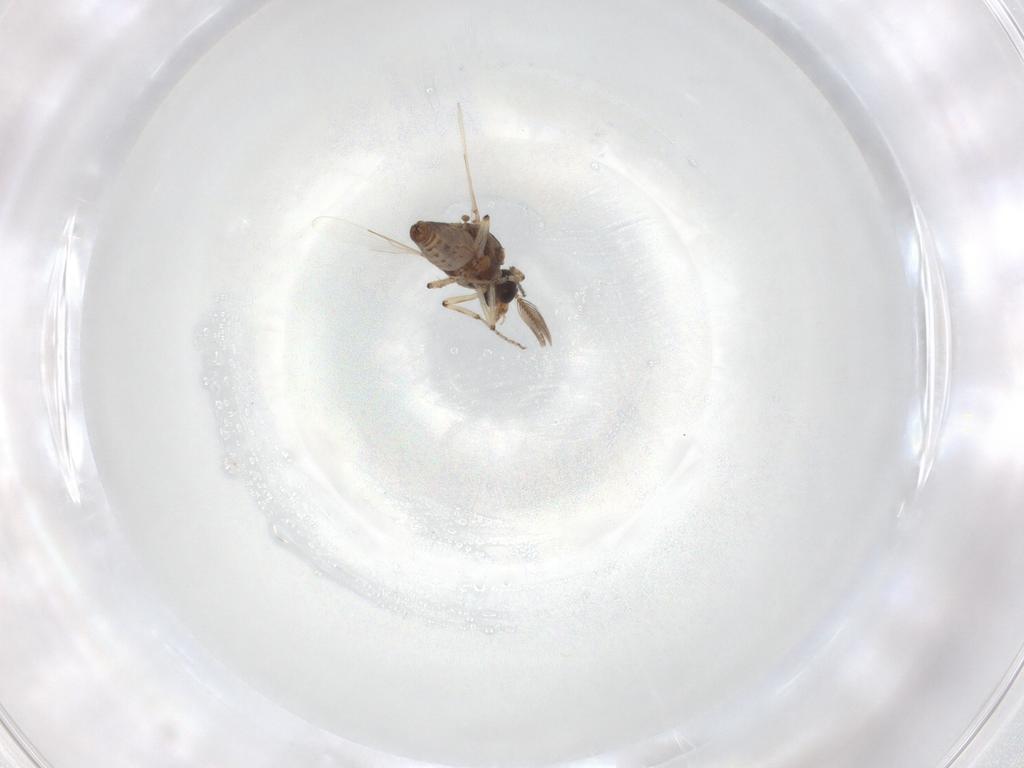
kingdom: Animalia
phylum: Arthropoda
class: Insecta
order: Diptera
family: Ceratopogonidae
